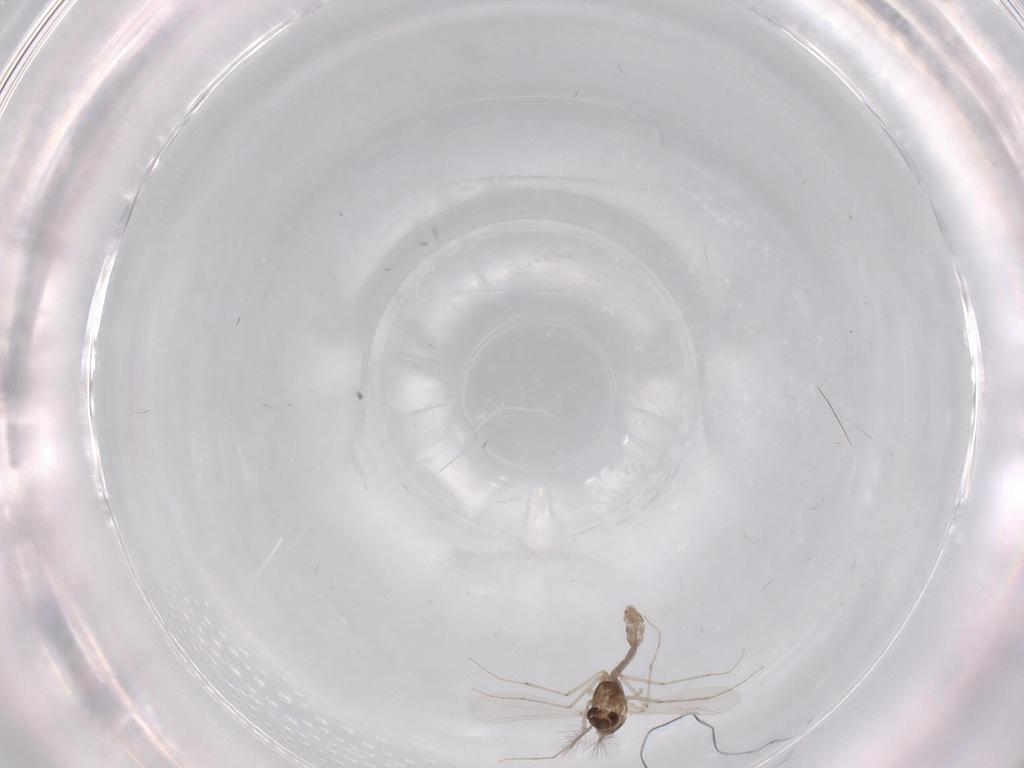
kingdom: Animalia
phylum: Arthropoda
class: Insecta
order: Diptera
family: Chironomidae
